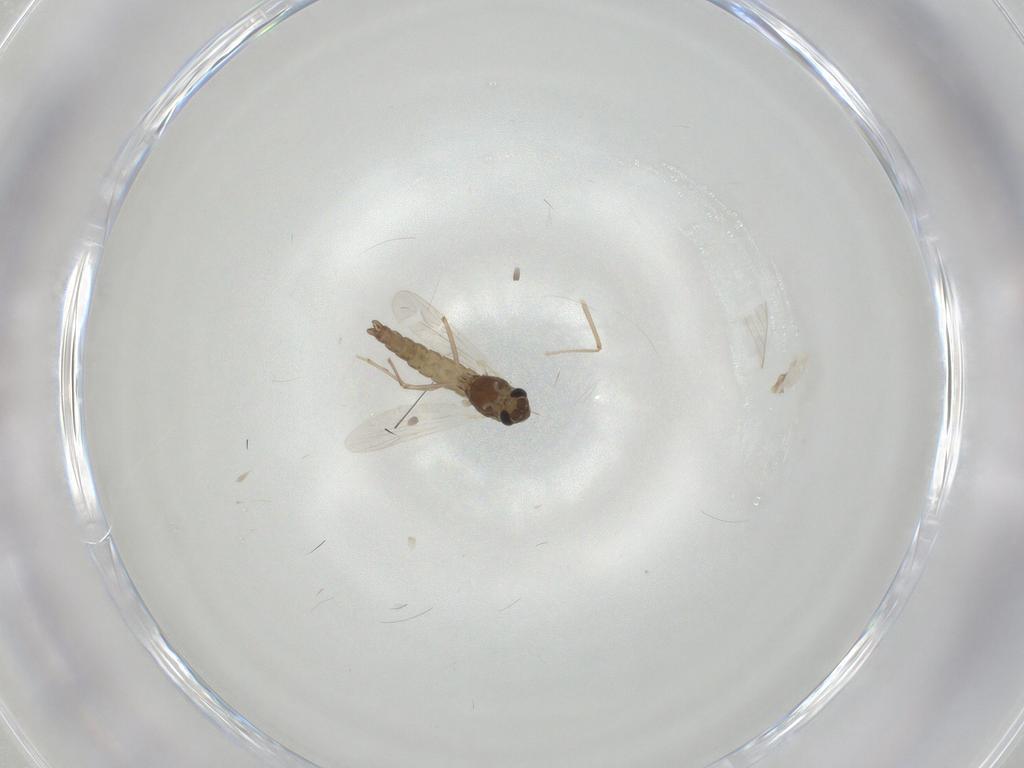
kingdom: Animalia
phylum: Arthropoda
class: Insecta
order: Diptera
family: Chironomidae
